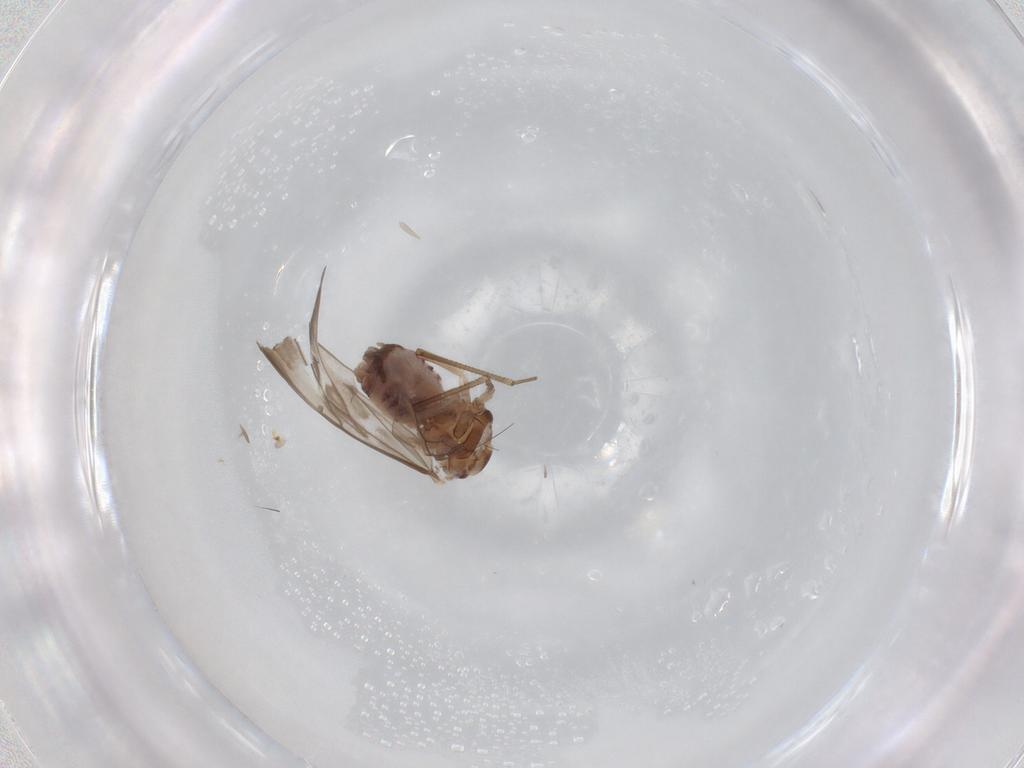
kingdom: Animalia
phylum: Arthropoda
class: Insecta
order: Psocodea
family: Peripsocidae
